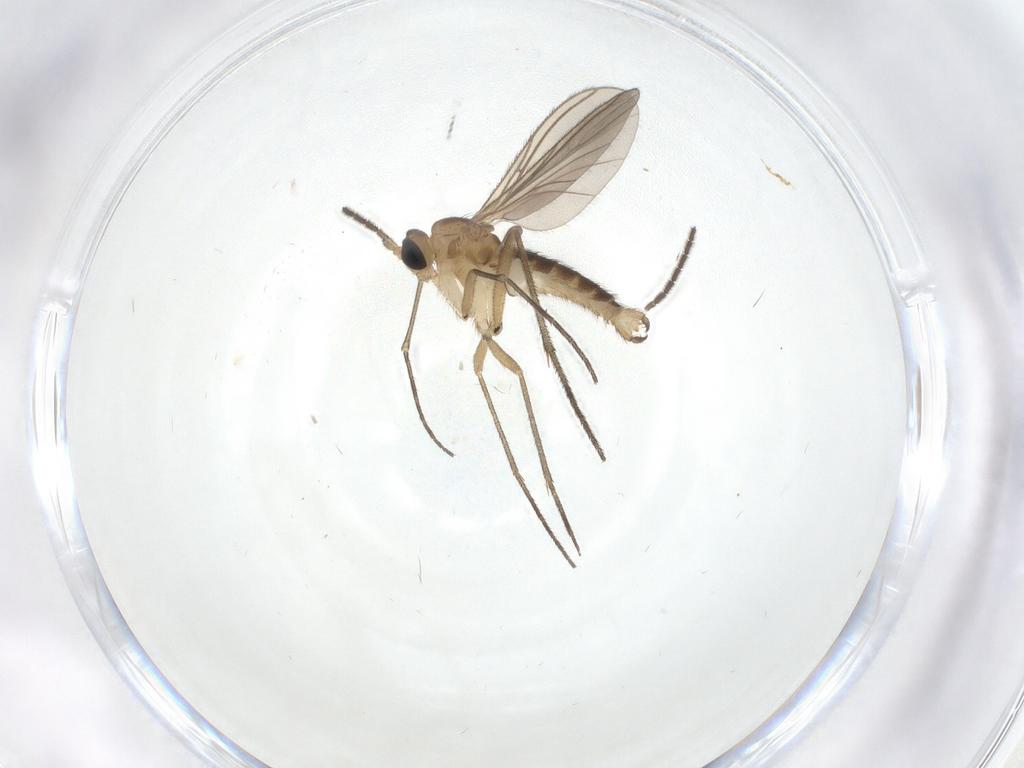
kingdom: Animalia
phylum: Arthropoda
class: Insecta
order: Diptera
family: Sciaridae
